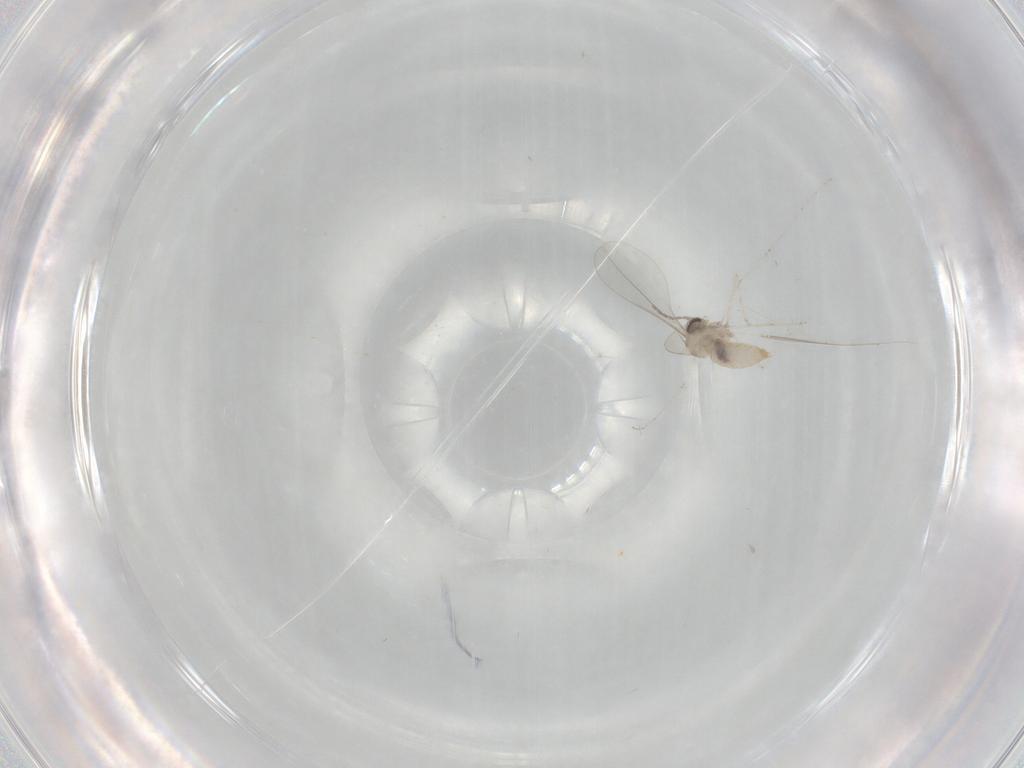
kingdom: Animalia
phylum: Arthropoda
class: Insecta
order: Diptera
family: Cecidomyiidae
